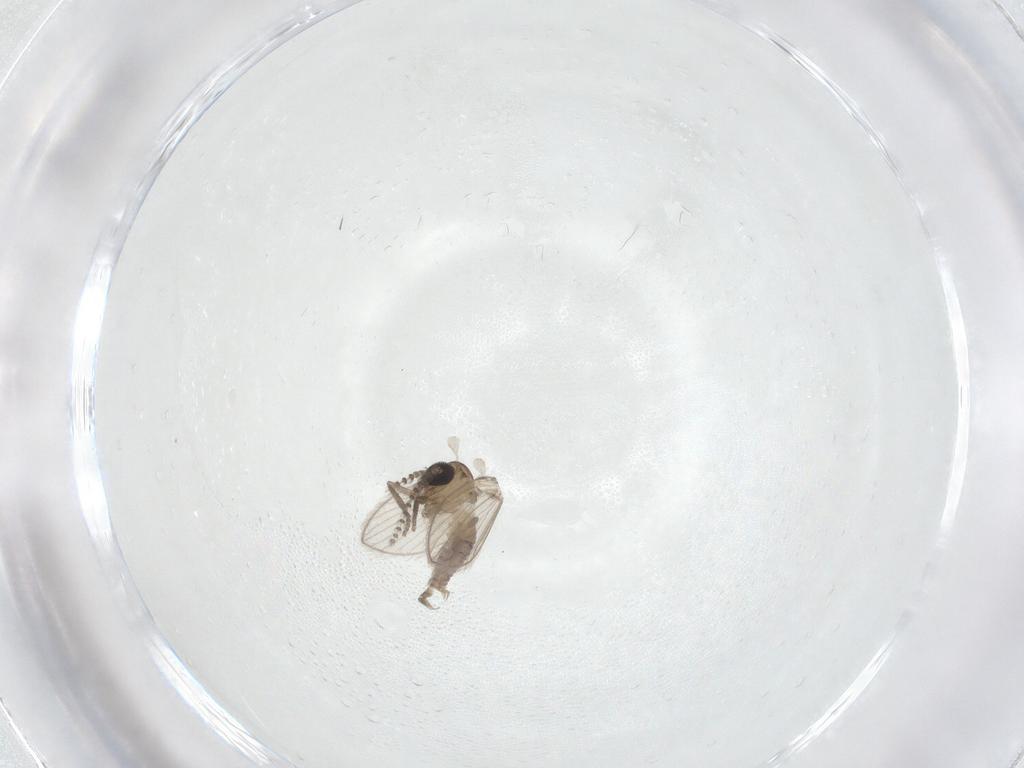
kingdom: Animalia
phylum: Arthropoda
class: Insecta
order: Diptera
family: Psychodidae
